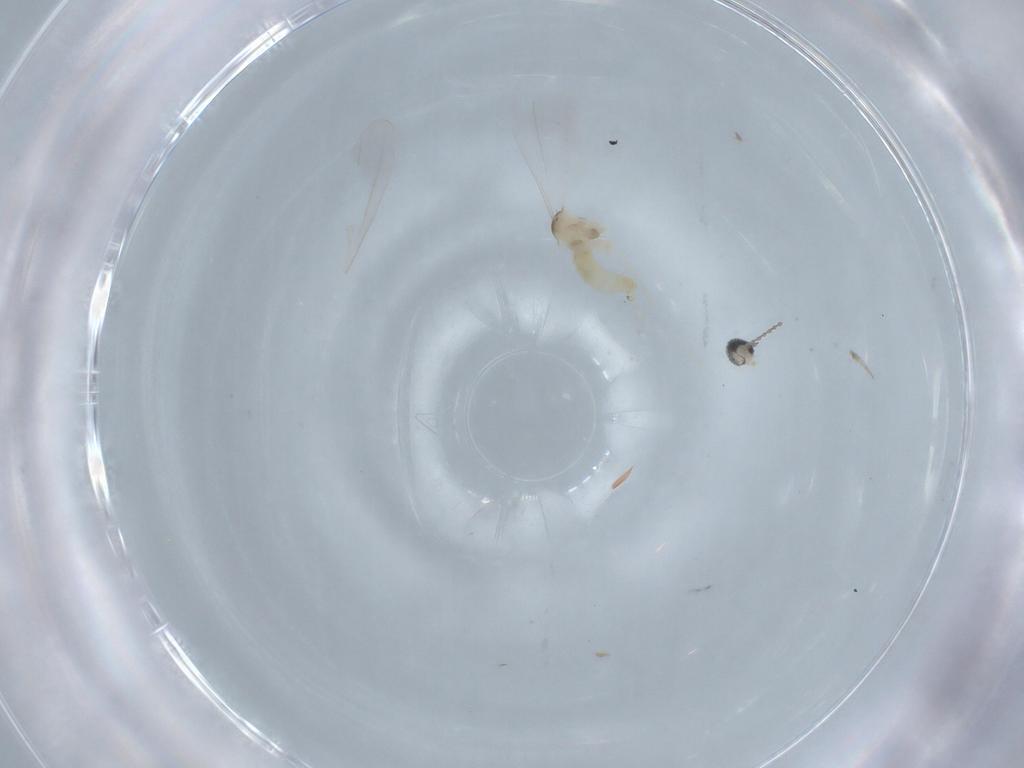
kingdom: Animalia
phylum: Arthropoda
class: Insecta
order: Diptera
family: Cecidomyiidae
